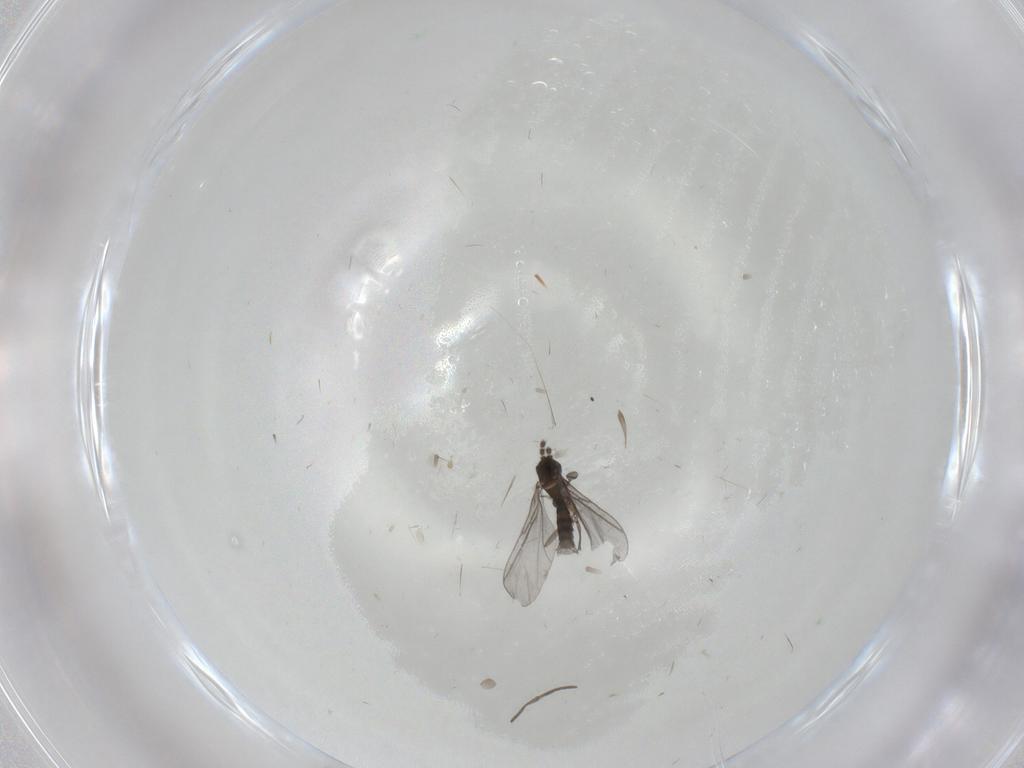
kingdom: Animalia
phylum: Arthropoda
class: Insecta
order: Diptera
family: Sciaridae
